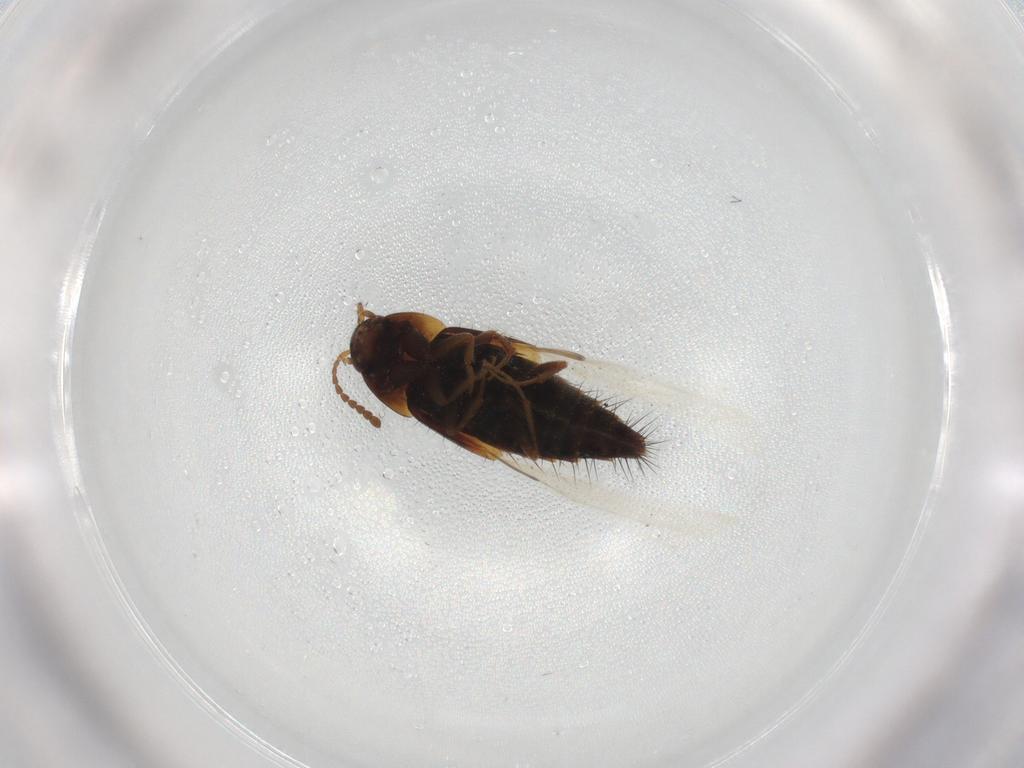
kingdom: Animalia
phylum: Arthropoda
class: Insecta
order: Coleoptera
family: Staphylinidae
